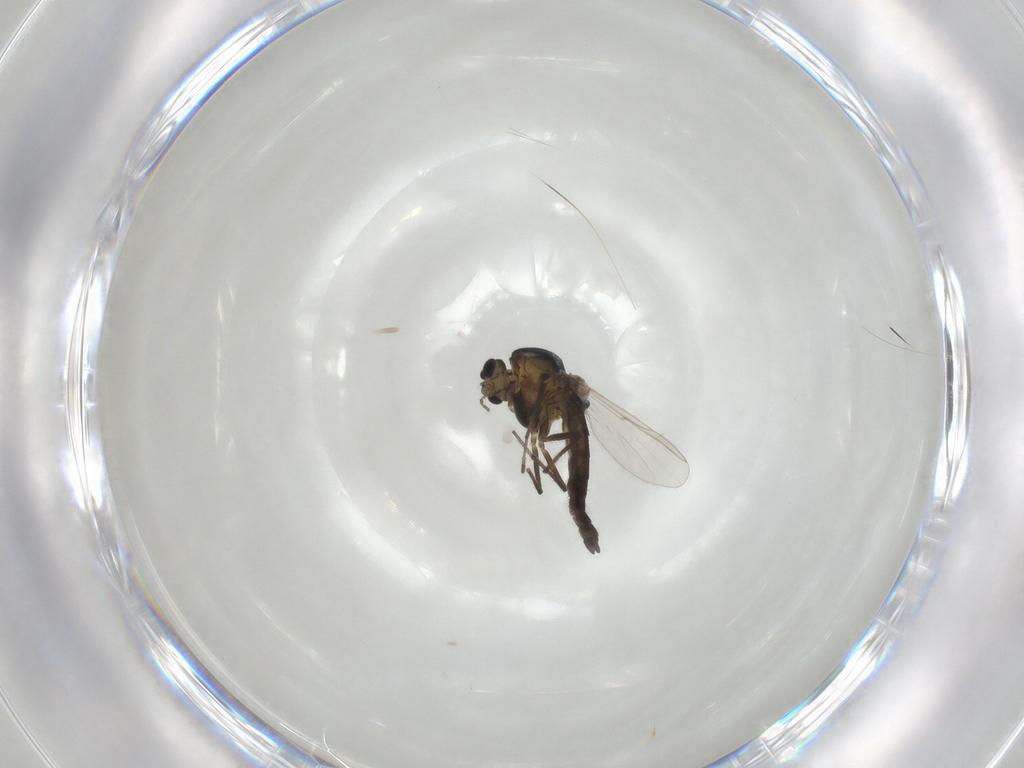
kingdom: Animalia
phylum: Arthropoda
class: Insecta
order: Diptera
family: Chironomidae
